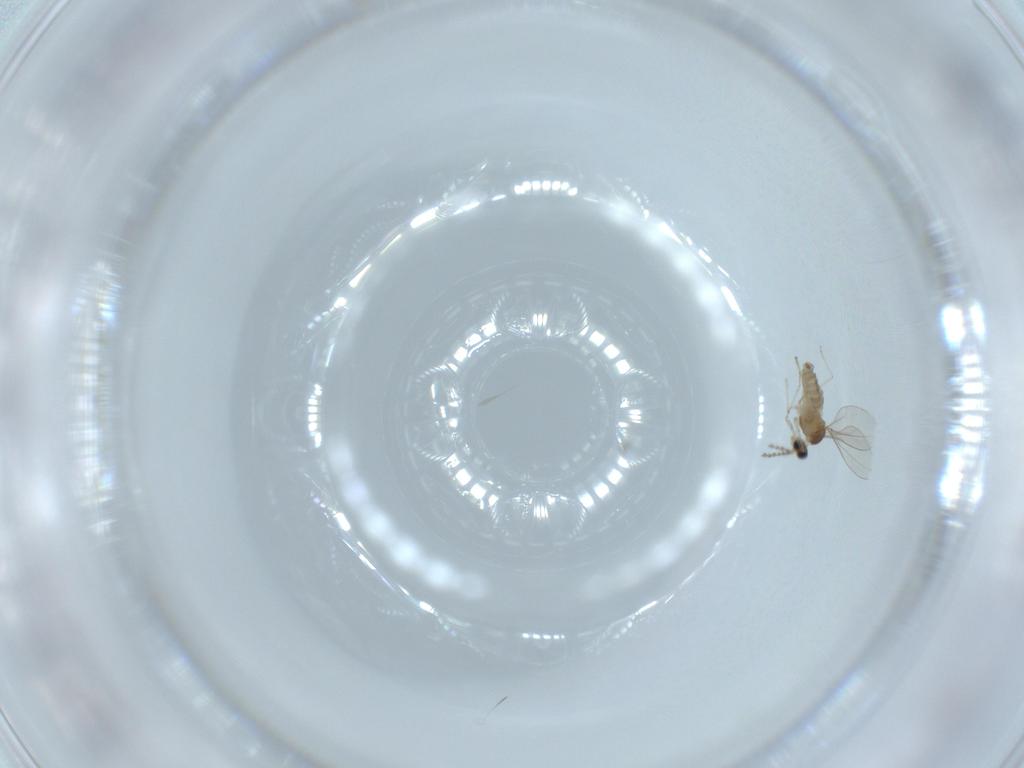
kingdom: Animalia
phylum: Arthropoda
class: Insecta
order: Diptera
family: Cecidomyiidae
